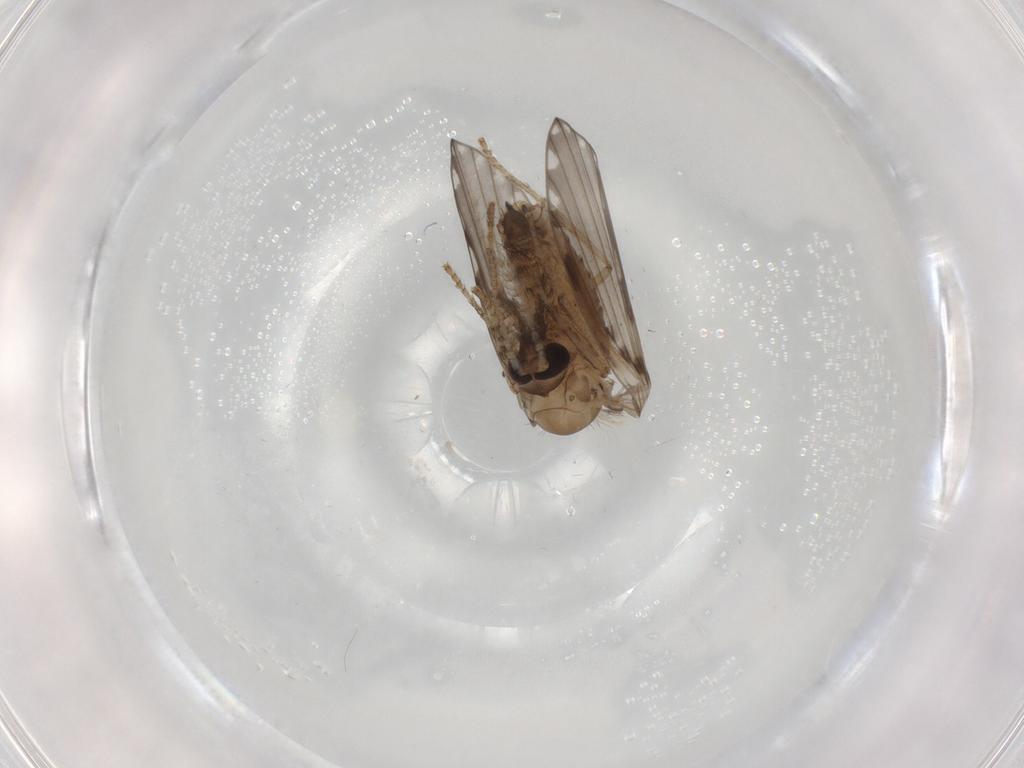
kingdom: Animalia
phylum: Arthropoda
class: Insecta
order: Diptera
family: Psychodidae
